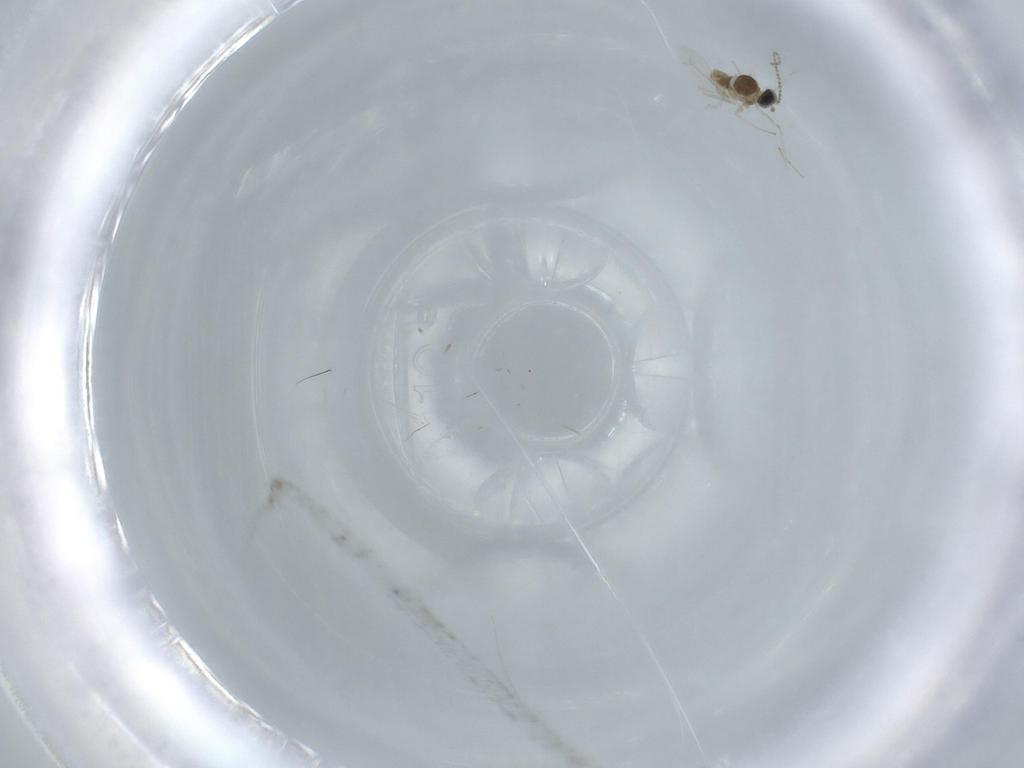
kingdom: Animalia
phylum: Arthropoda
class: Insecta
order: Diptera
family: Cecidomyiidae
